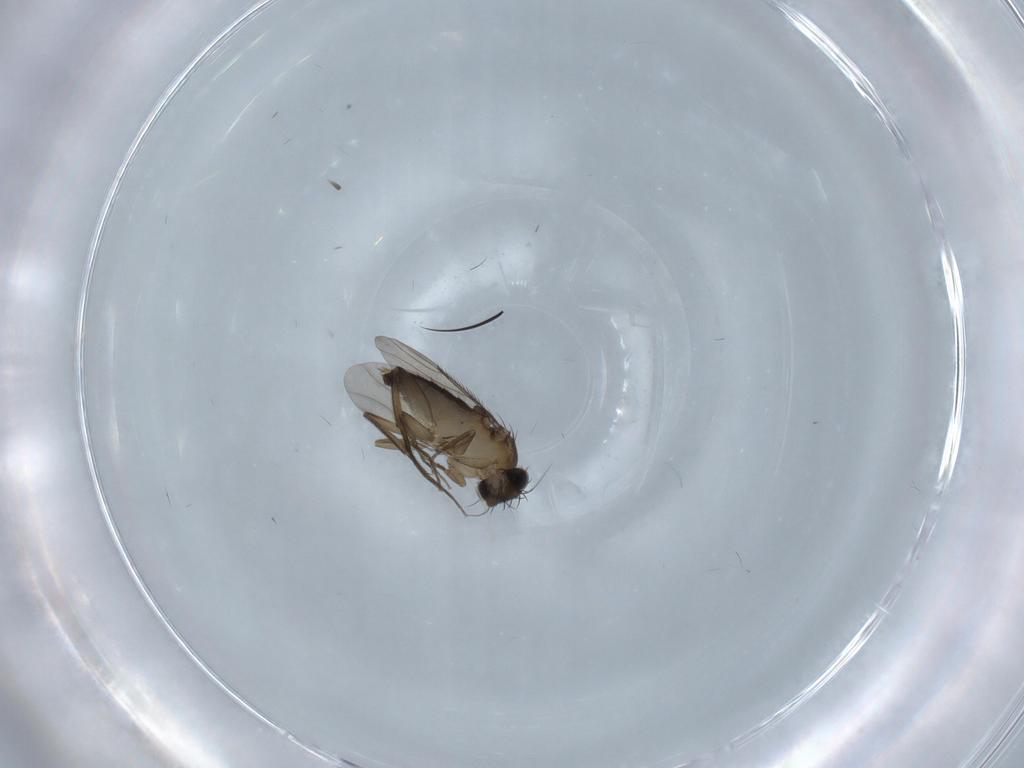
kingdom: Animalia
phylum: Arthropoda
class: Insecta
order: Diptera
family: Phoridae
